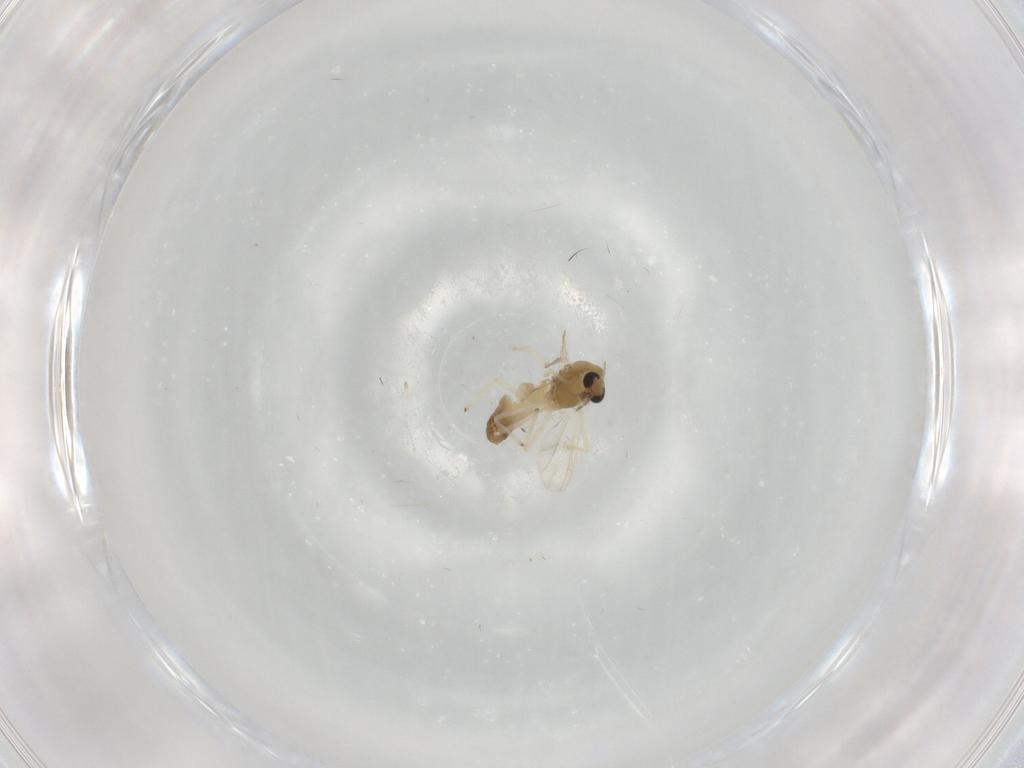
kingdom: Animalia
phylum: Arthropoda
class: Insecta
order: Diptera
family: Chironomidae
